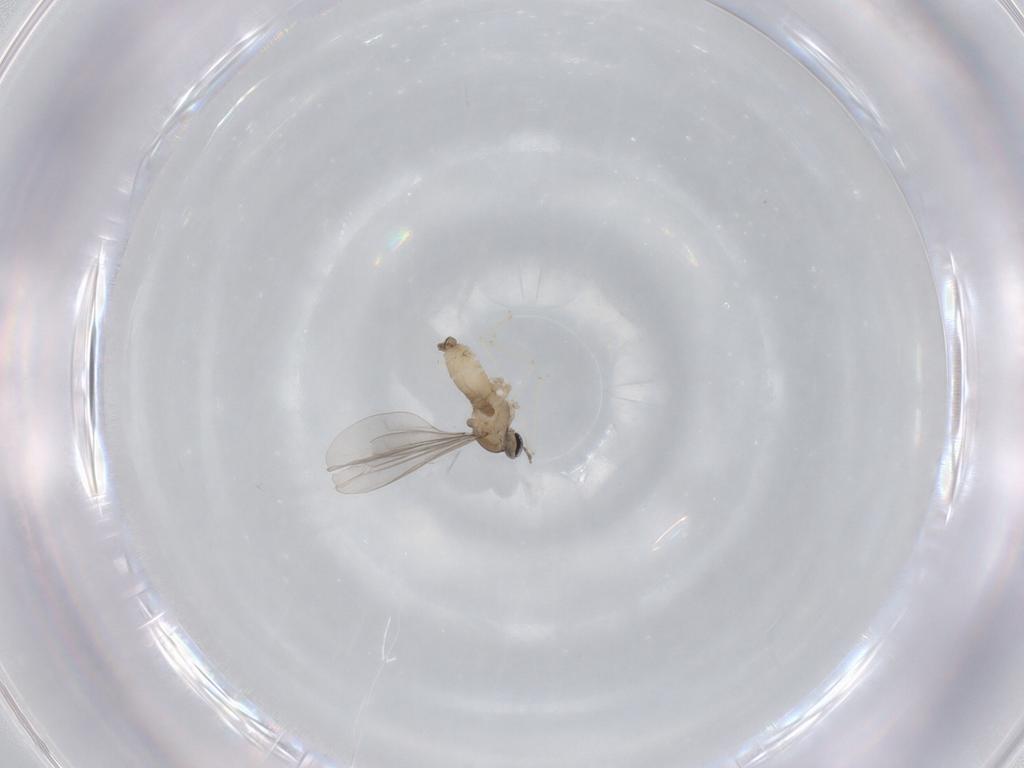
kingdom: Animalia
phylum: Arthropoda
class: Insecta
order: Diptera
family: Cecidomyiidae
